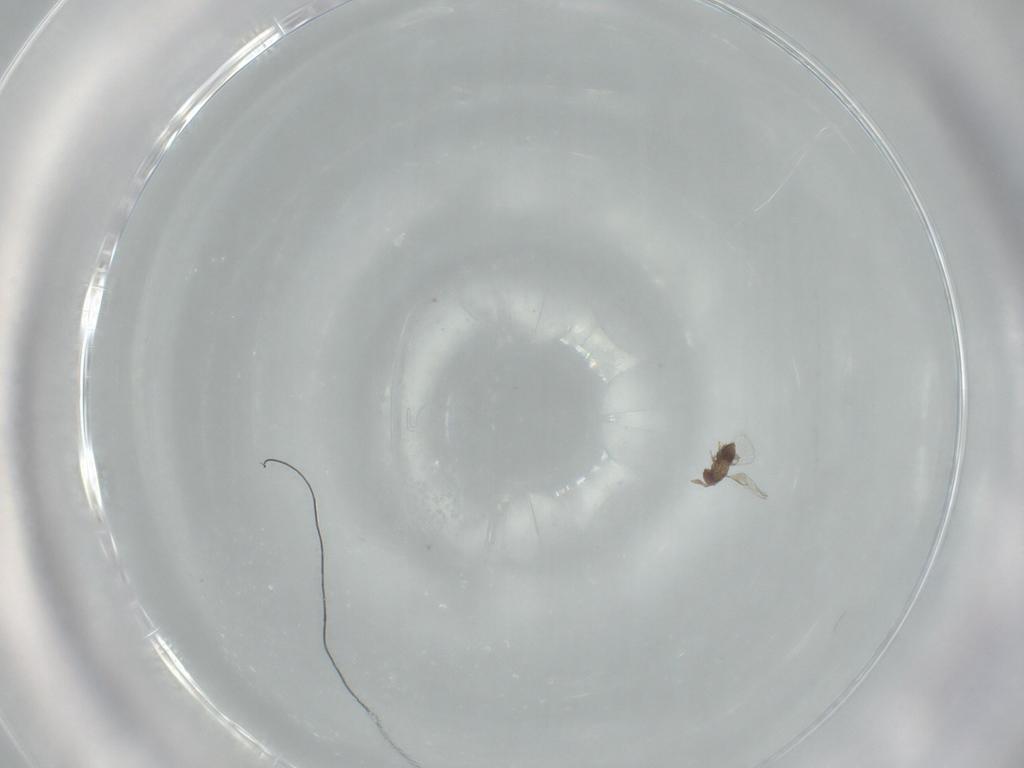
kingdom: Animalia
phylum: Arthropoda
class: Insecta
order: Hymenoptera
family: Trichogrammatidae
